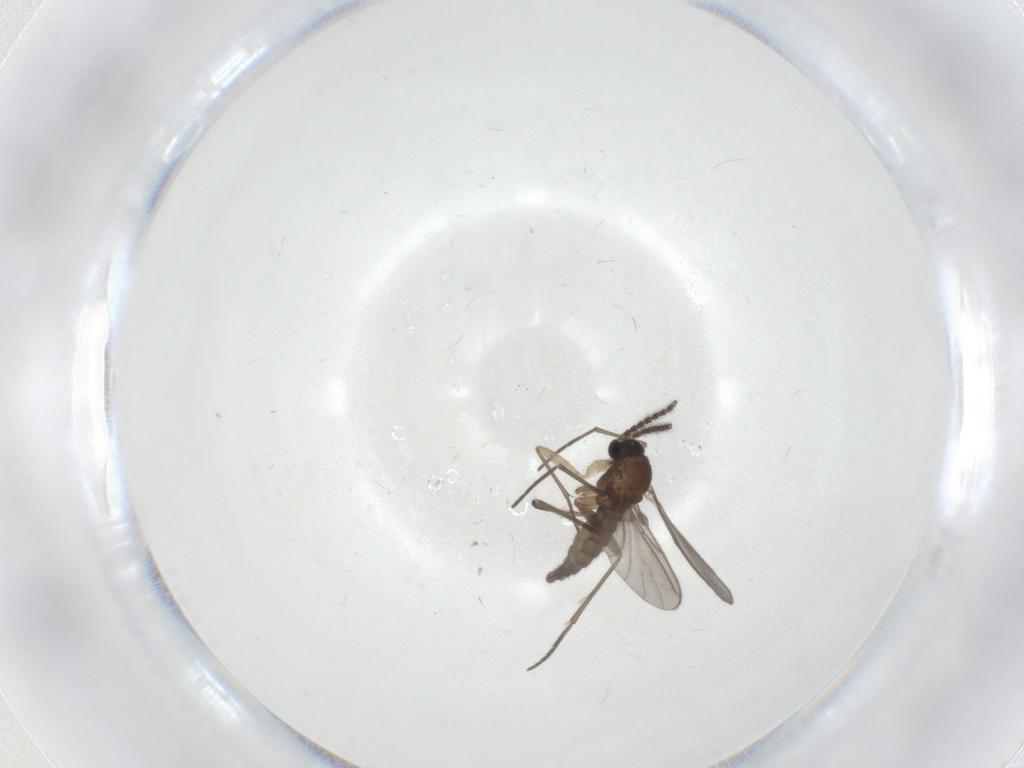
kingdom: Animalia
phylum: Arthropoda
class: Insecta
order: Diptera
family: Sciaridae
